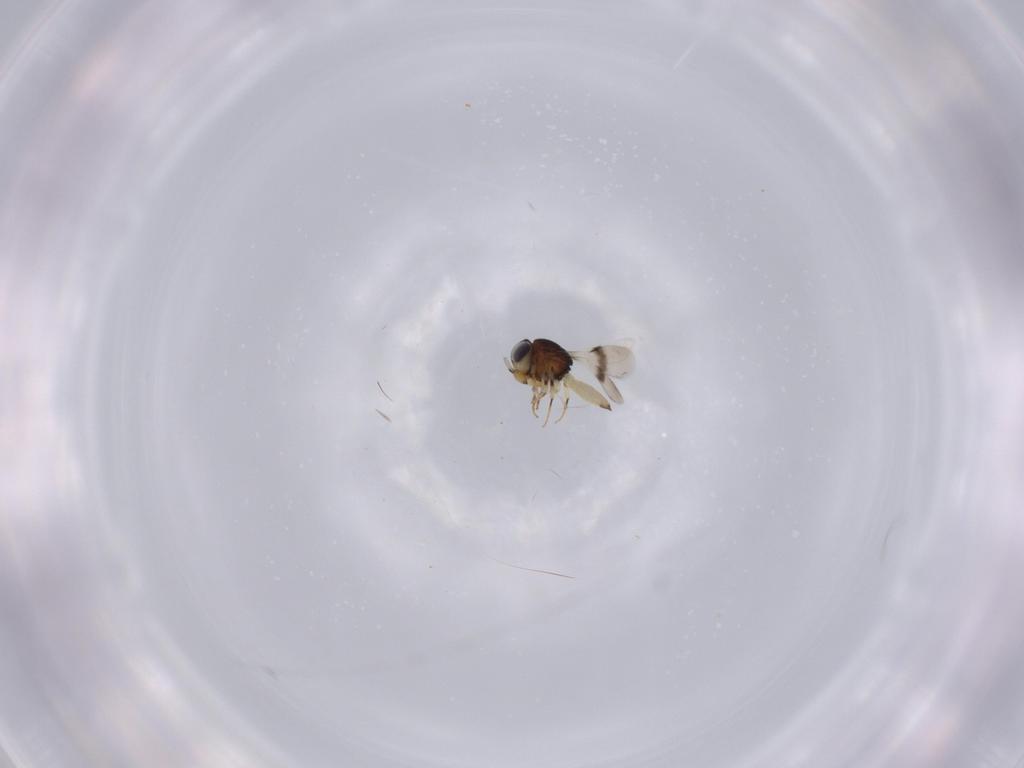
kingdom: Animalia
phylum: Arthropoda
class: Insecta
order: Hymenoptera
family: Scelionidae
